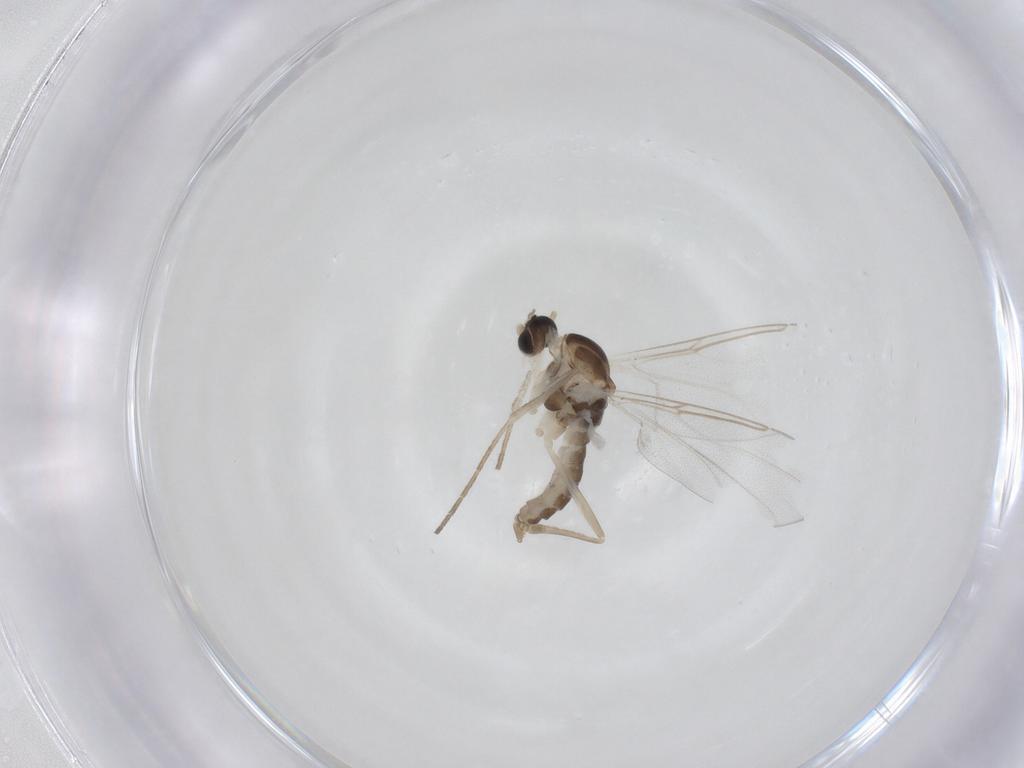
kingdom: Animalia
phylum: Arthropoda
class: Insecta
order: Diptera
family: Cecidomyiidae
